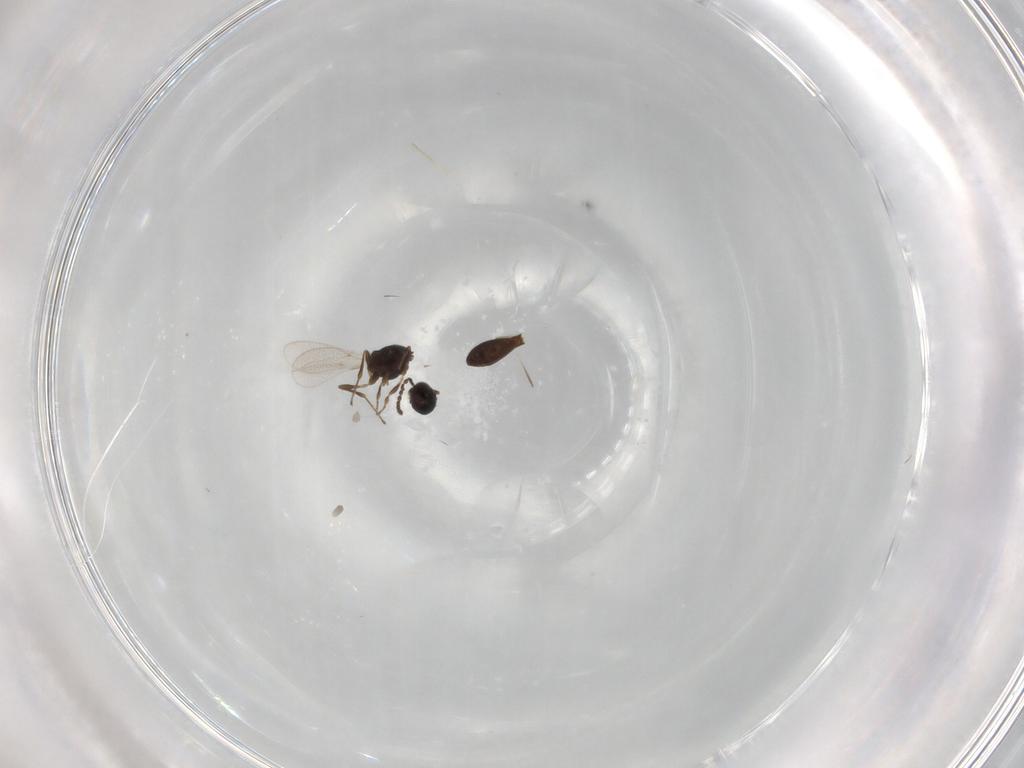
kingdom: Animalia
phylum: Arthropoda
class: Insecta
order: Hymenoptera
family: Platygastridae
